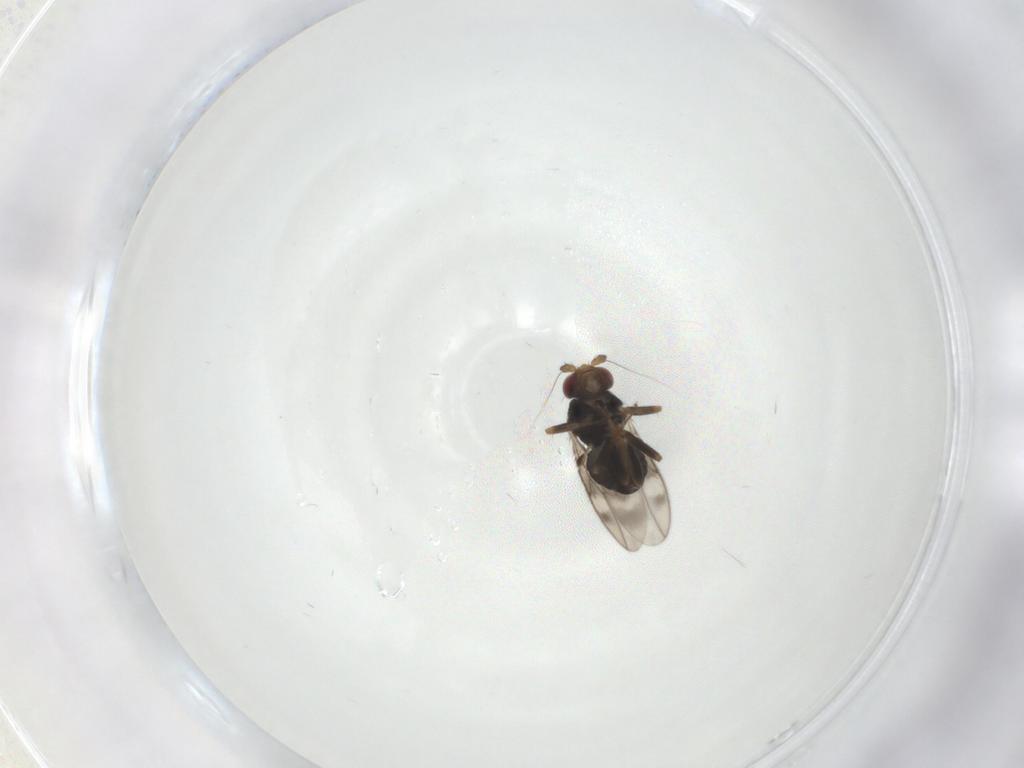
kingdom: Animalia
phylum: Arthropoda
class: Insecta
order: Diptera
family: Sphaeroceridae
